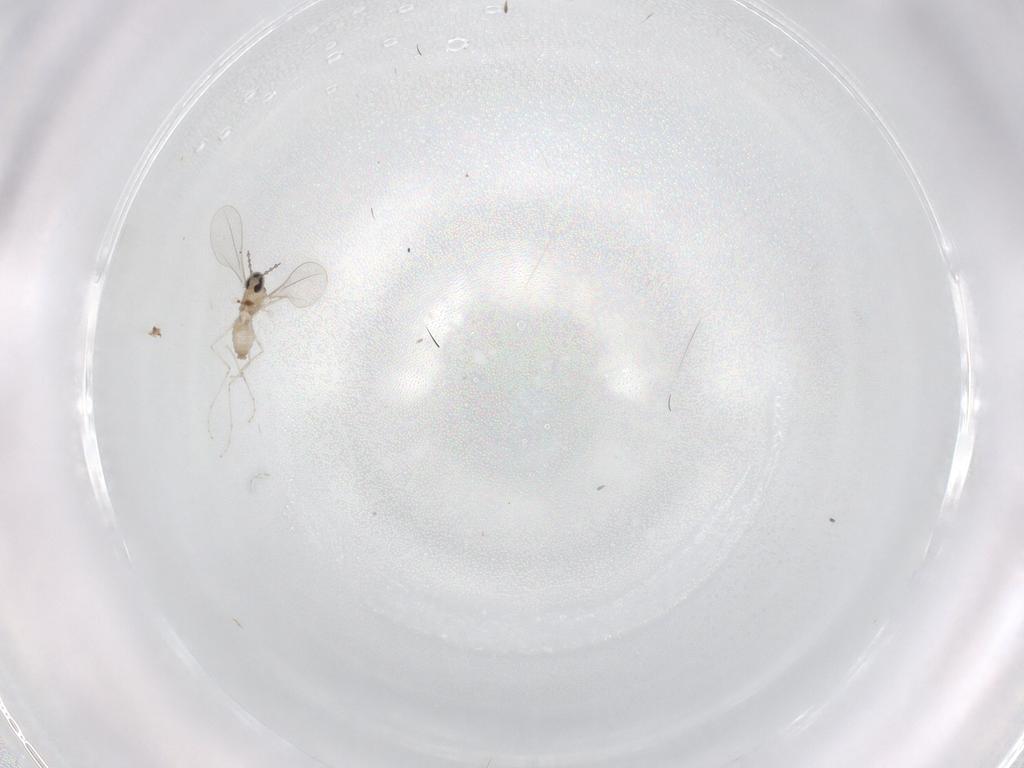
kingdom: Animalia
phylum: Arthropoda
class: Insecta
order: Diptera
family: Cecidomyiidae
